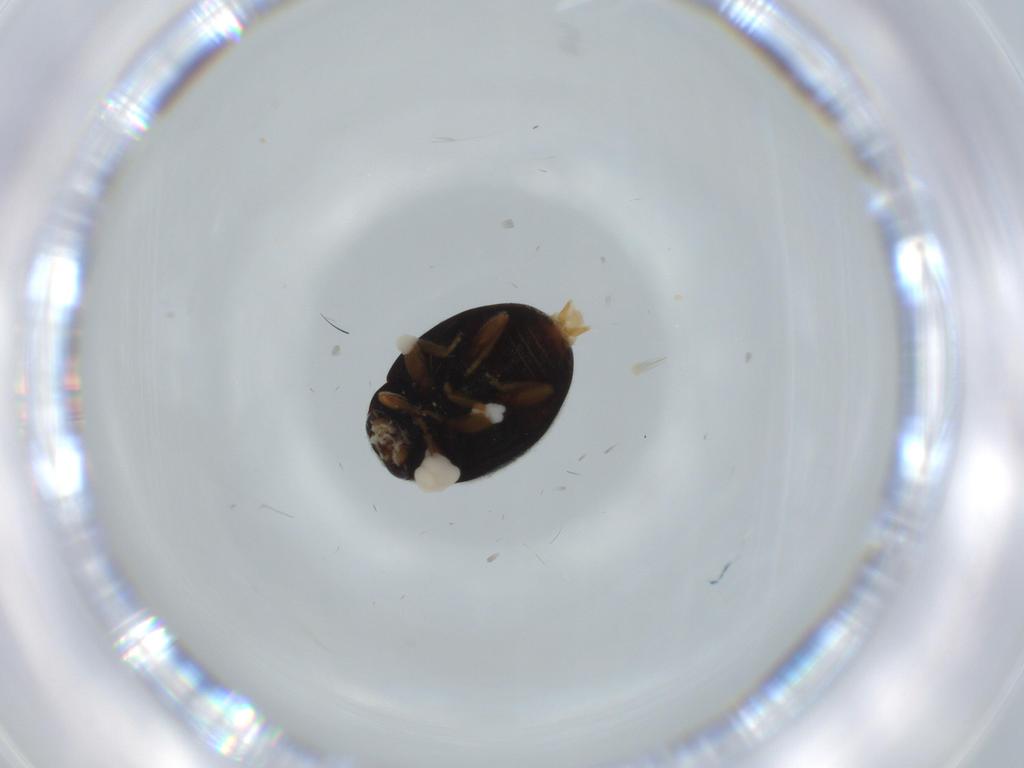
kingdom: Animalia
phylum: Arthropoda
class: Insecta
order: Coleoptera
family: Coccinellidae
